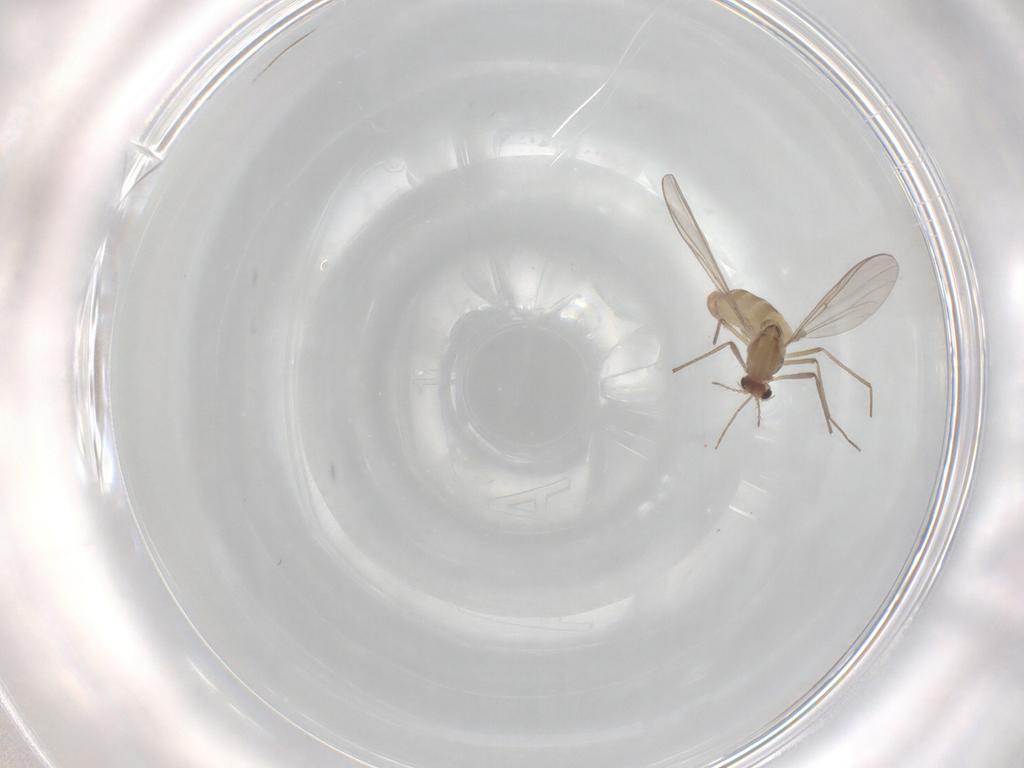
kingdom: Animalia
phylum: Arthropoda
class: Insecta
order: Diptera
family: Chironomidae
